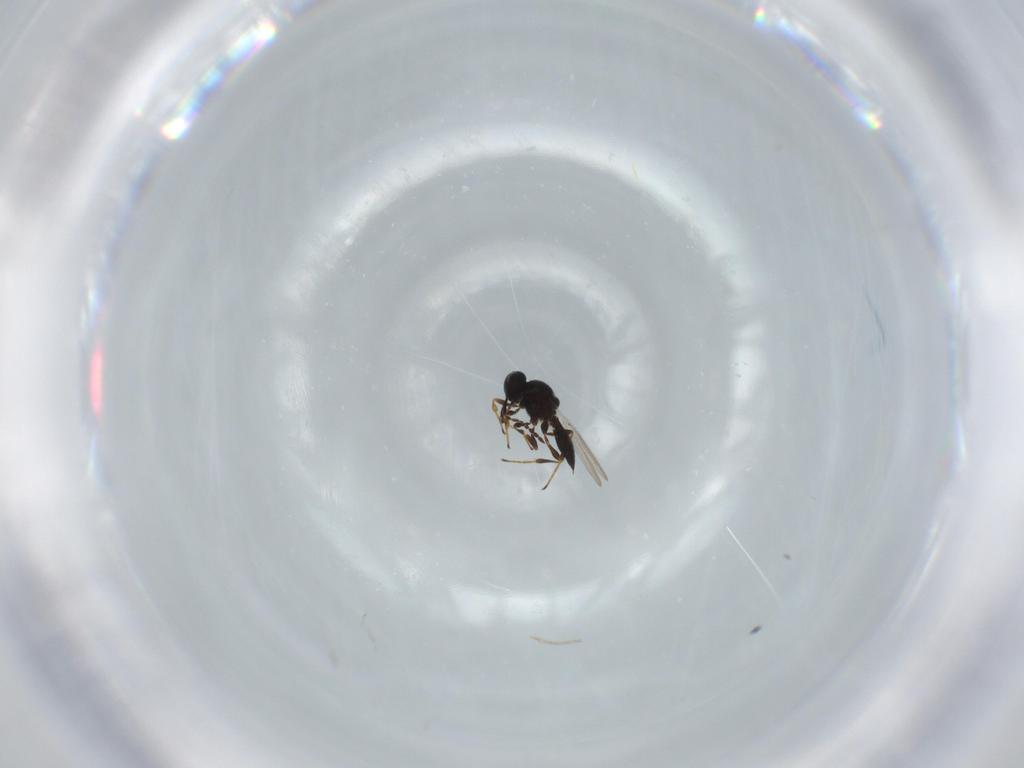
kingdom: Animalia
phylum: Arthropoda
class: Insecta
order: Hymenoptera
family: Platygastridae
